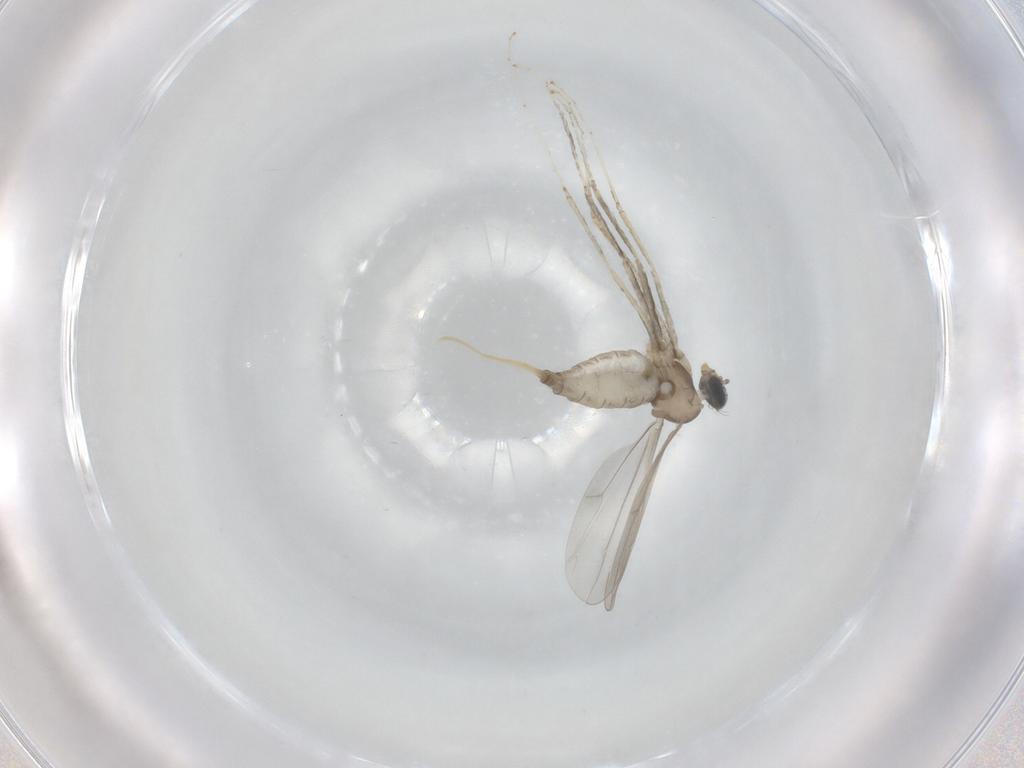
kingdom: Animalia
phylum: Arthropoda
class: Insecta
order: Diptera
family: Cecidomyiidae
